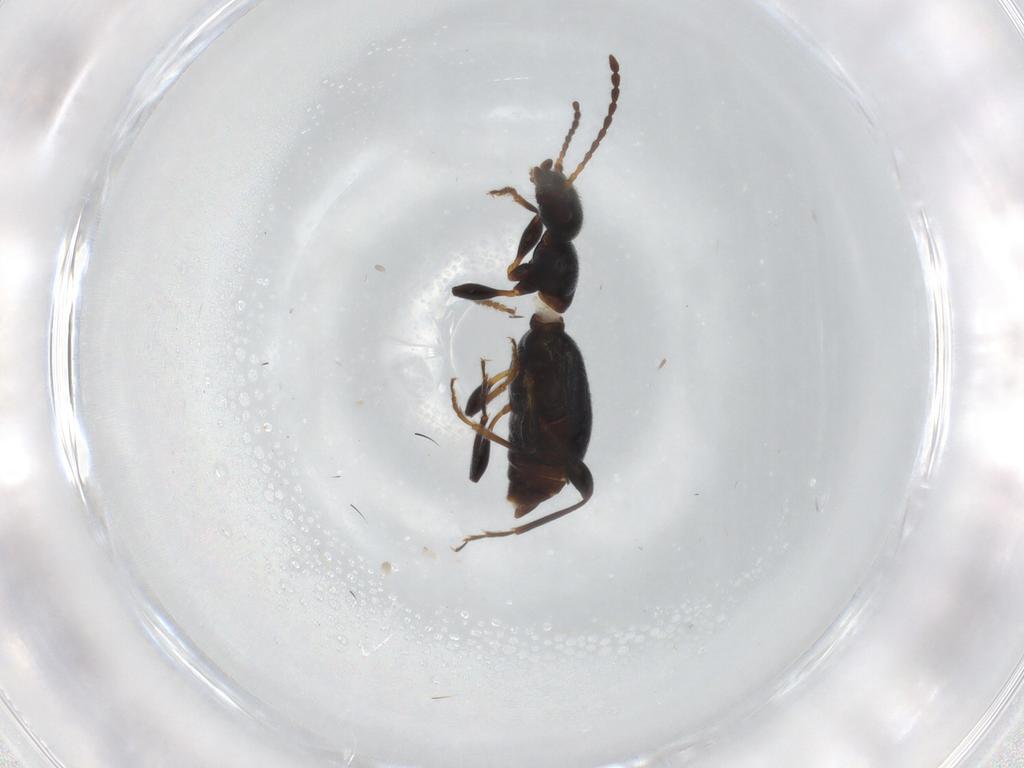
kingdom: Animalia
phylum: Arthropoda
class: Insecta
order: Coleoptera
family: Anthicidae
